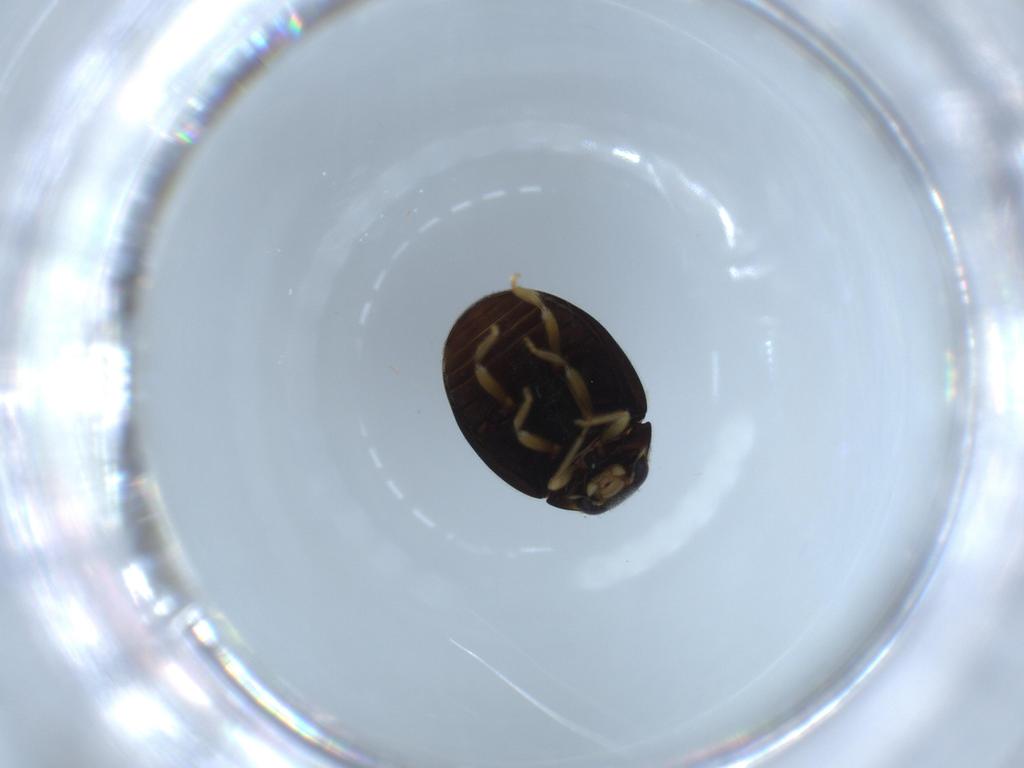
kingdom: Animalia
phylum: Arthropoda
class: Insecta
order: Coleoptera
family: Coccinellidae
